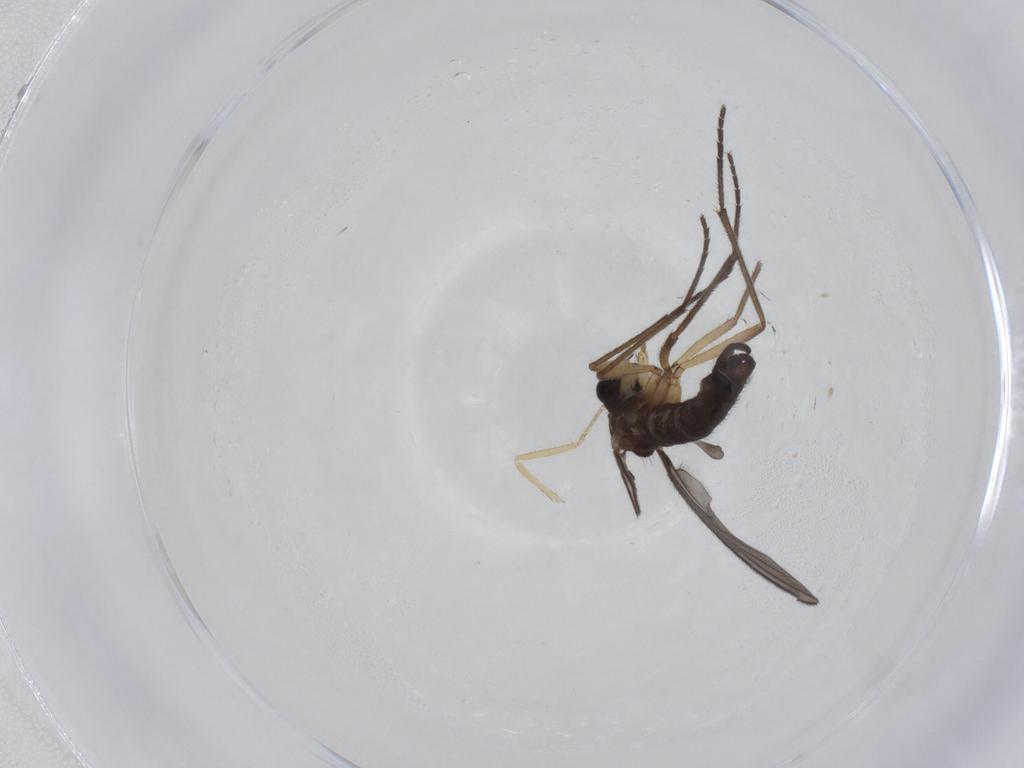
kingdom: Animalia
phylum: Arthropoda
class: Insecta
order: Diptera
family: Sciaridae
